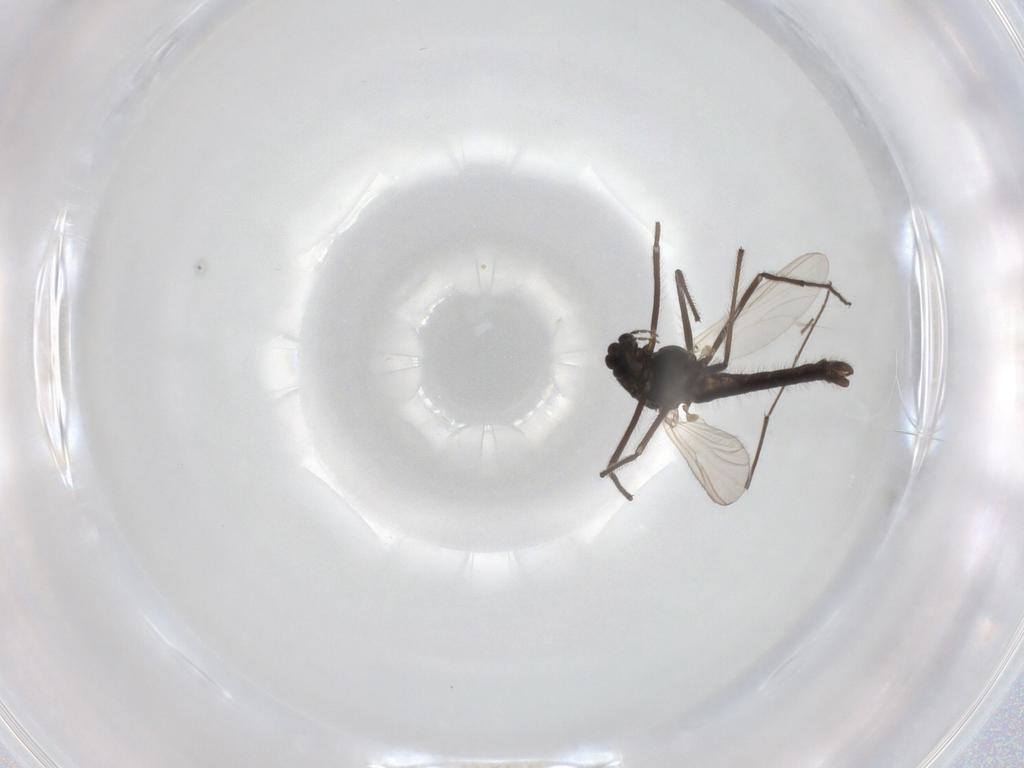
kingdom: Animalia
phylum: Arthropoda
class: Insecta
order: Diptera
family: Chironomidae
